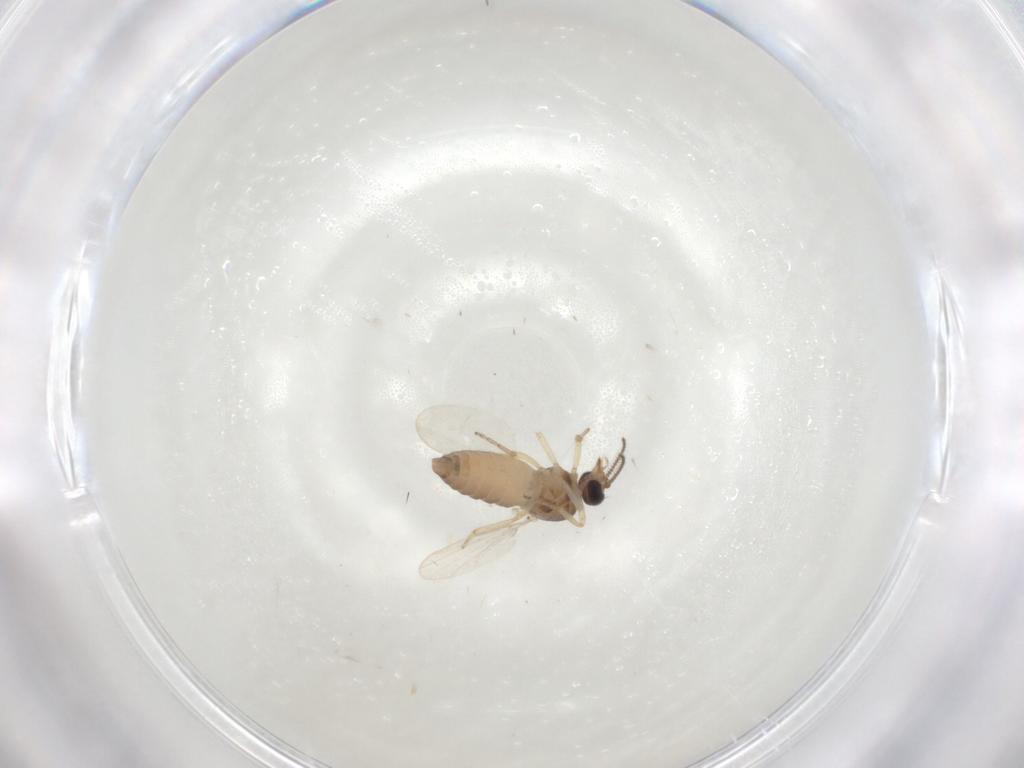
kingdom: Animalia
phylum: Arthropoda
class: Insecta
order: Diptera
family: Ceratopogonidae
